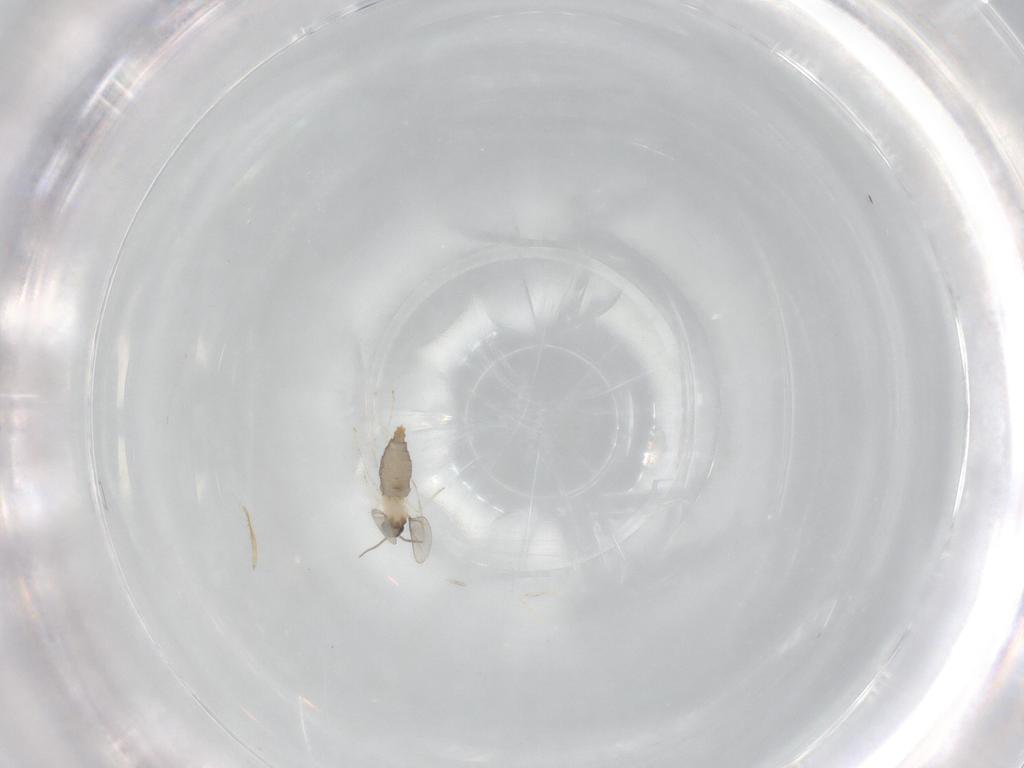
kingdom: Animalia
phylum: Arthropoda
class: Insecta
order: Diptera
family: Cecidomyiidae
